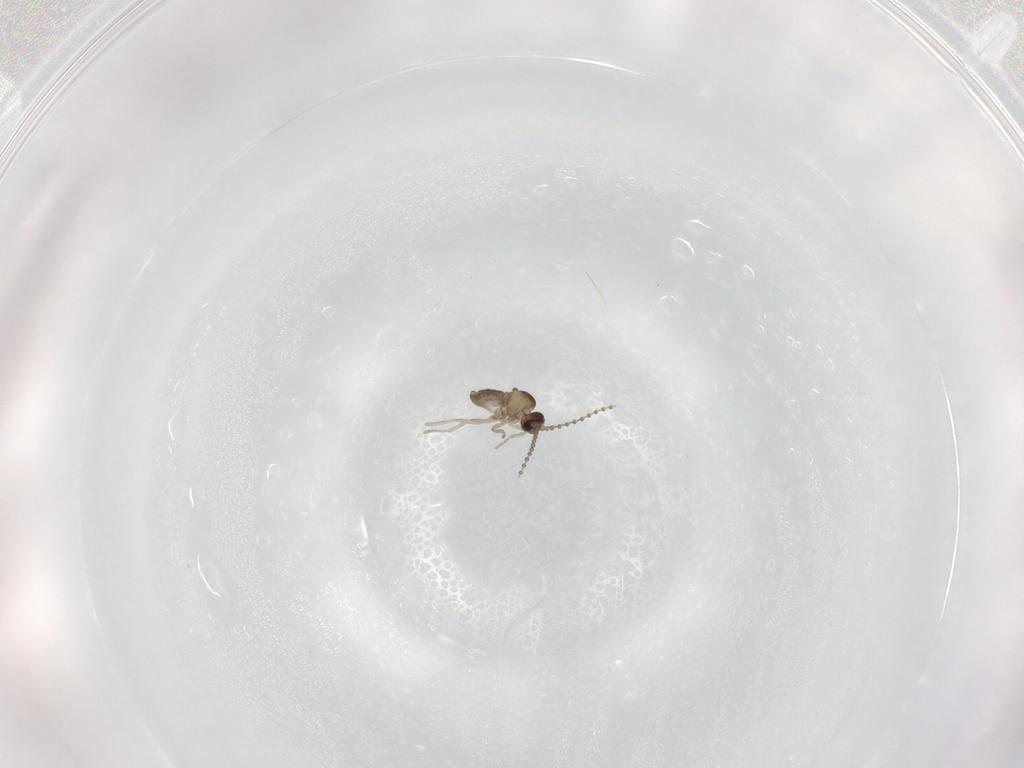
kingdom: Animalia
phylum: Arthropoda
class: Insecta
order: Diptera
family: Cecidomyiidae
